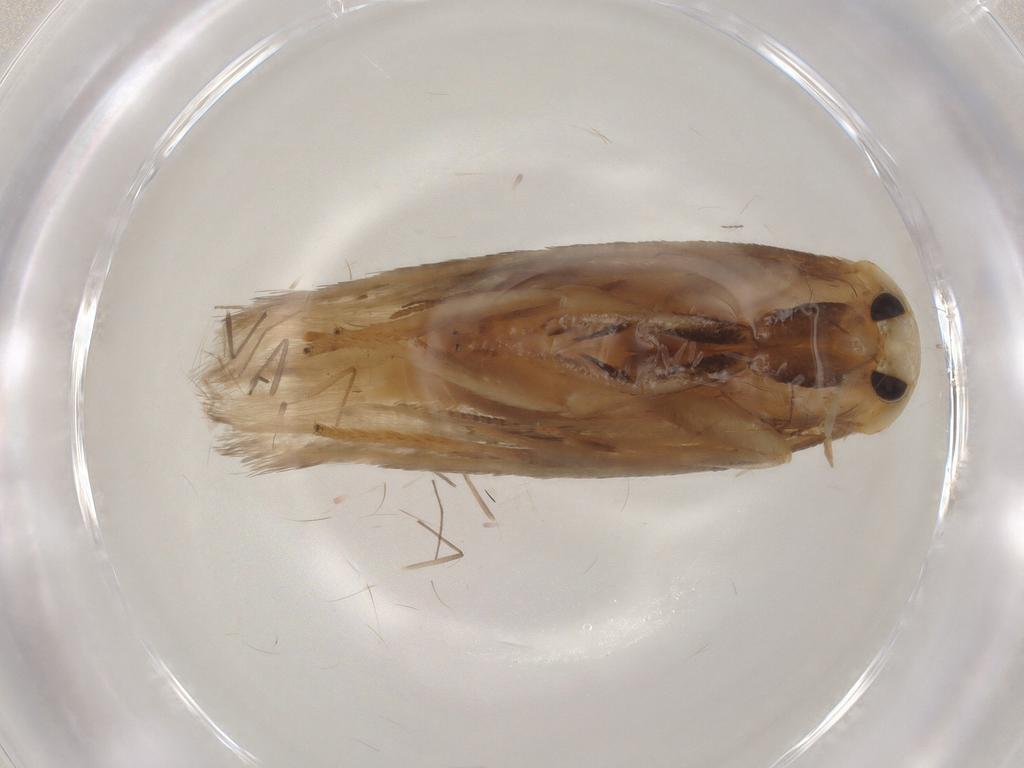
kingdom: Animalia
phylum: Arthropoda
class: Insecta
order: Lepidoptera
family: Geometridae
